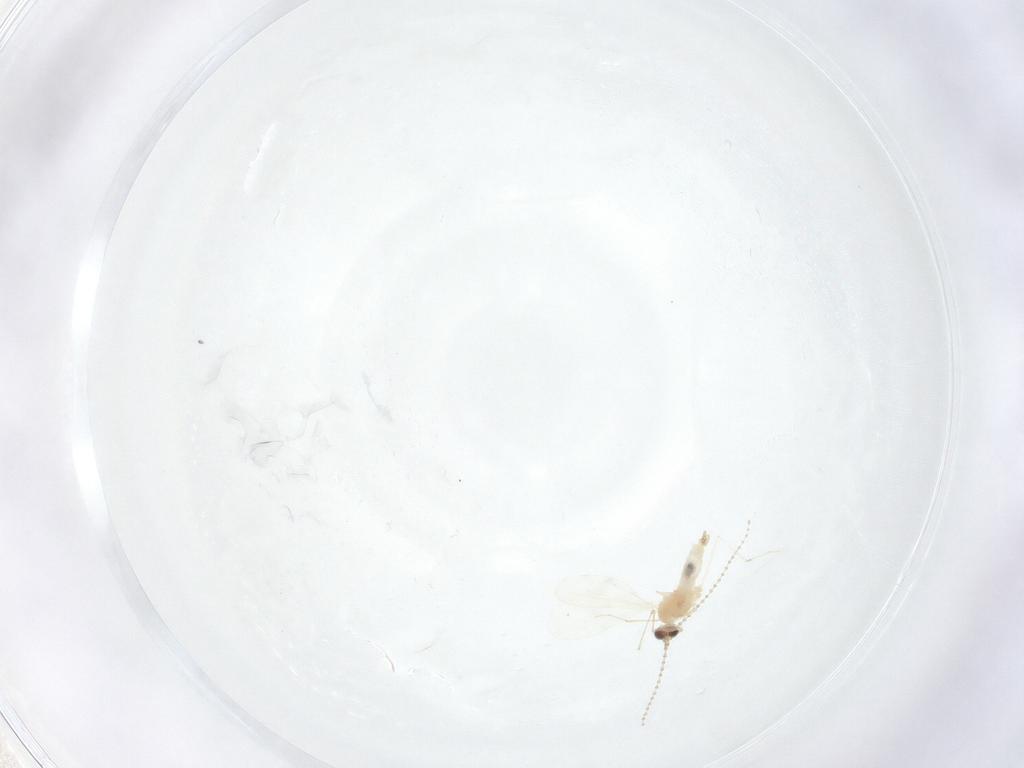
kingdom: Animalia
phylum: Arthropoda
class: Insecta
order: Diptera
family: Cecidomyiidae
